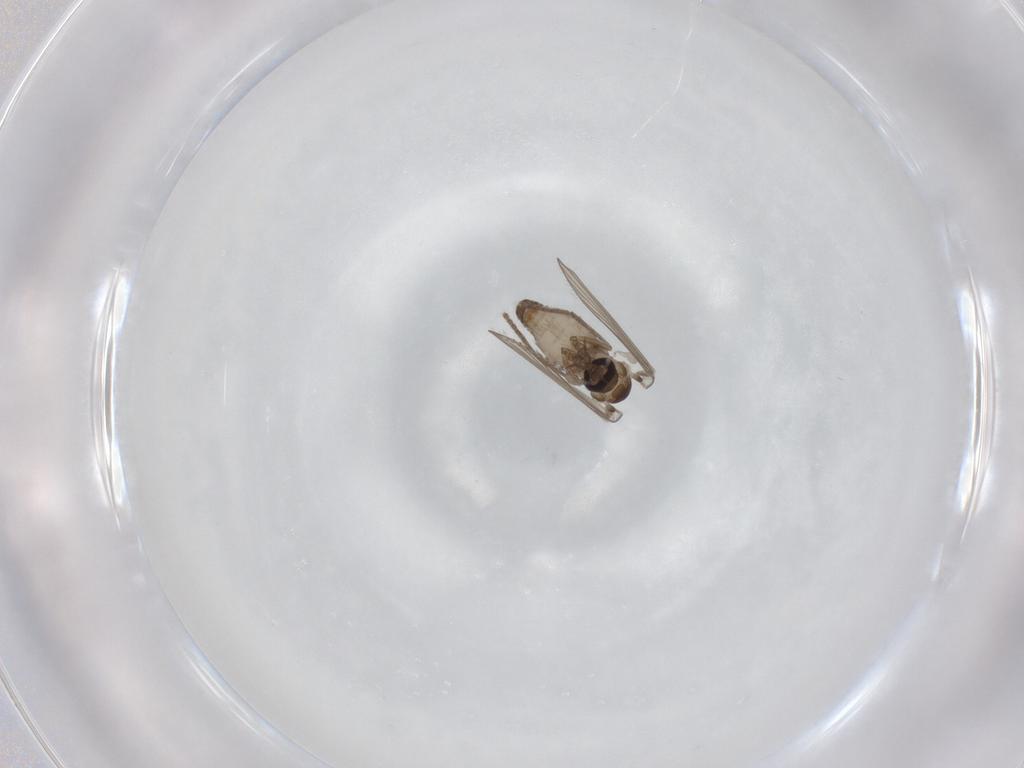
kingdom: Animalia
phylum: Arthropoda
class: Insecta
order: Diptera
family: Psychodidae
